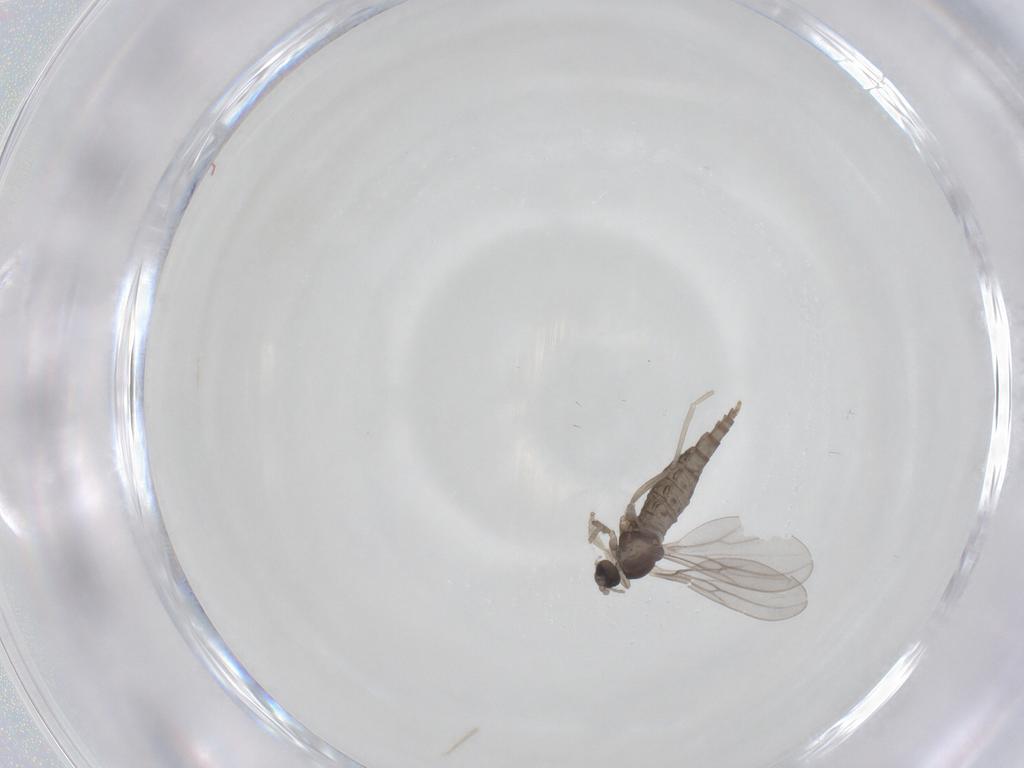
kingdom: Animalia
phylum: Arthropoda
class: Insecta
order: Diptera
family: Cecidomyiidae
